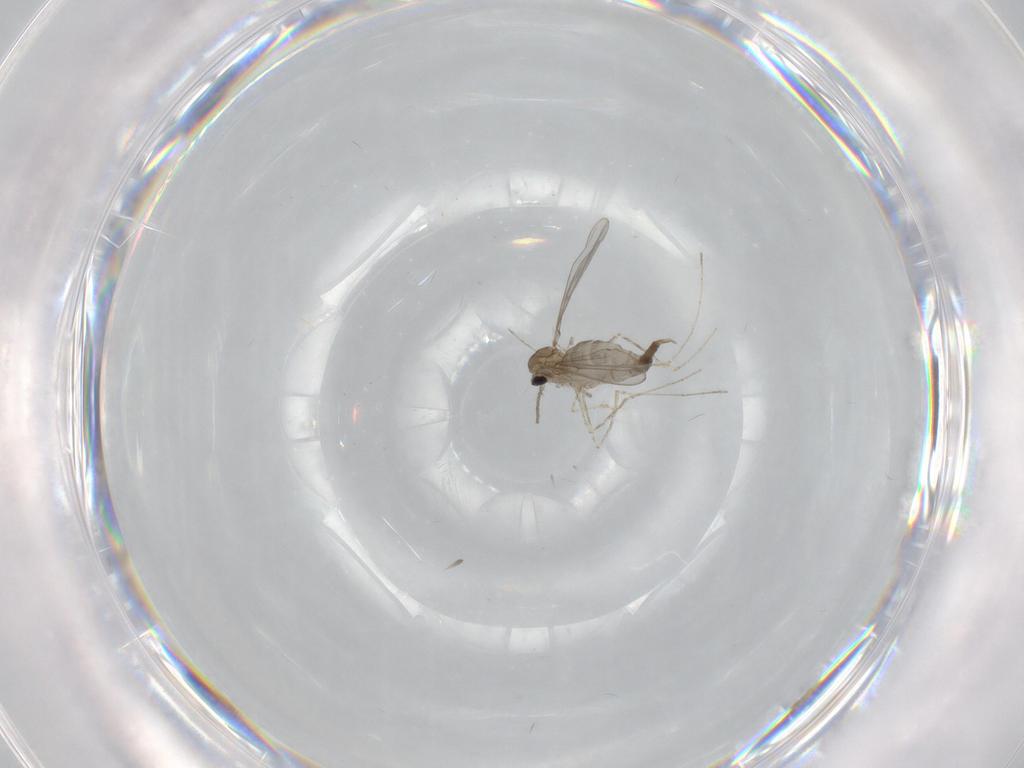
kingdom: Animalia
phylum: Arthropoda
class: Insecta
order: Diptera
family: Cecidomyiidae
